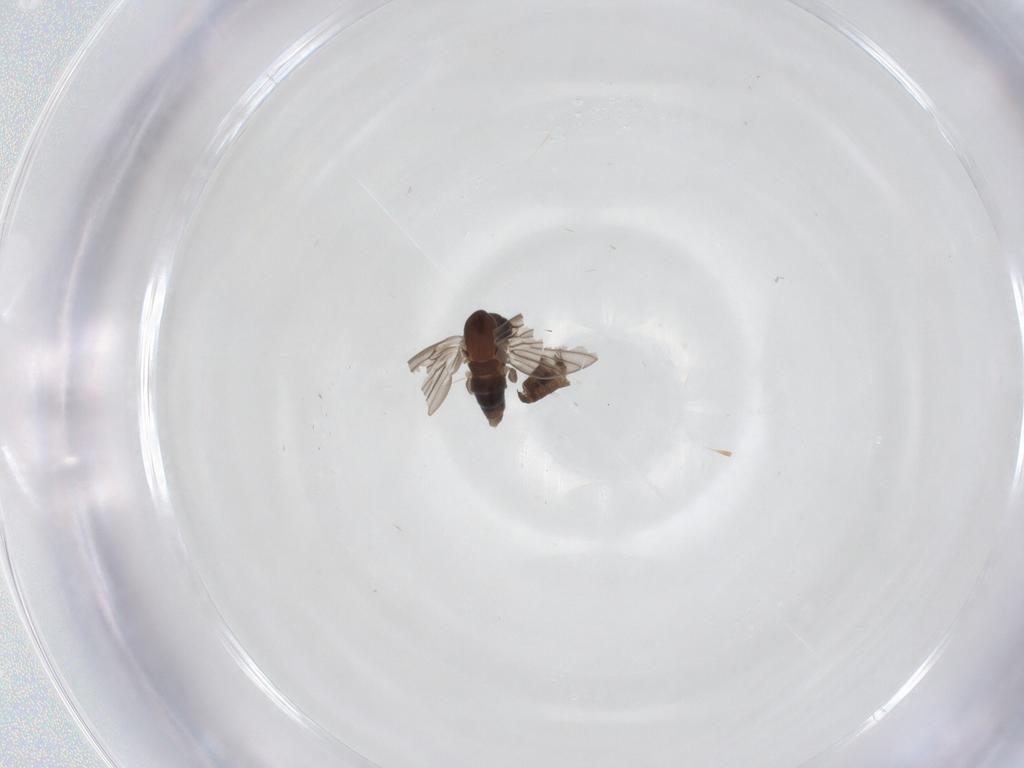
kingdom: Animalia
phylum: Arthropoda
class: Insecta
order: Diptera
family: Psychodidae
